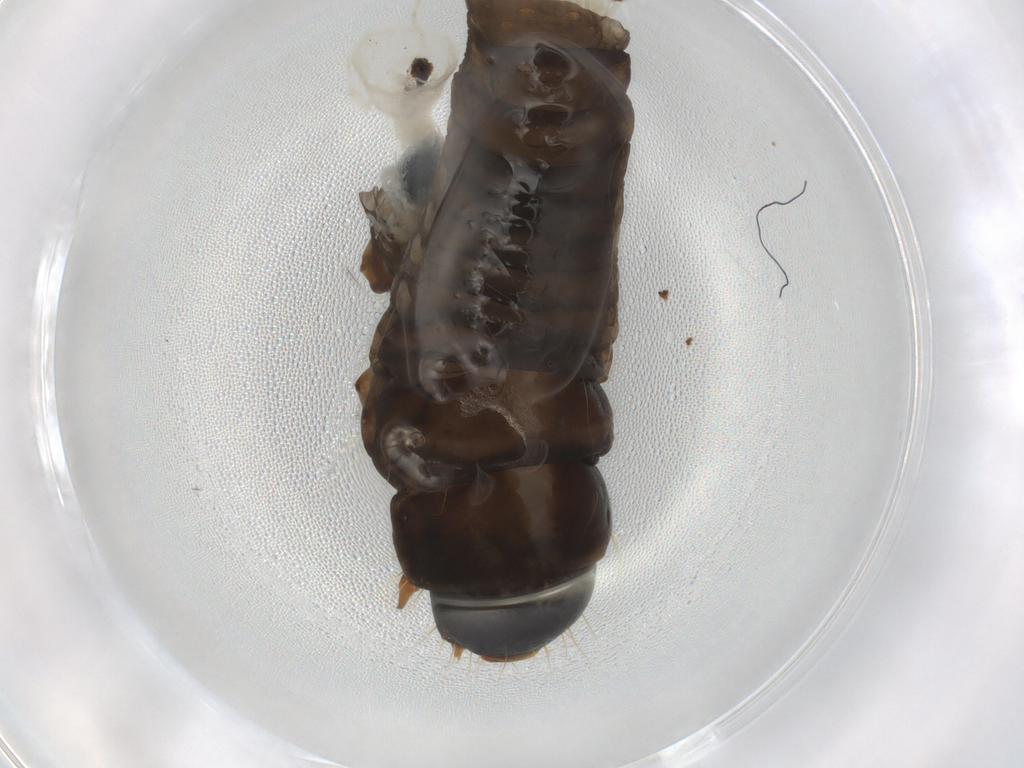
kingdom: Animalia
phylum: Arthropoda
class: Insecta
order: Lepidoptera
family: Psychidae
